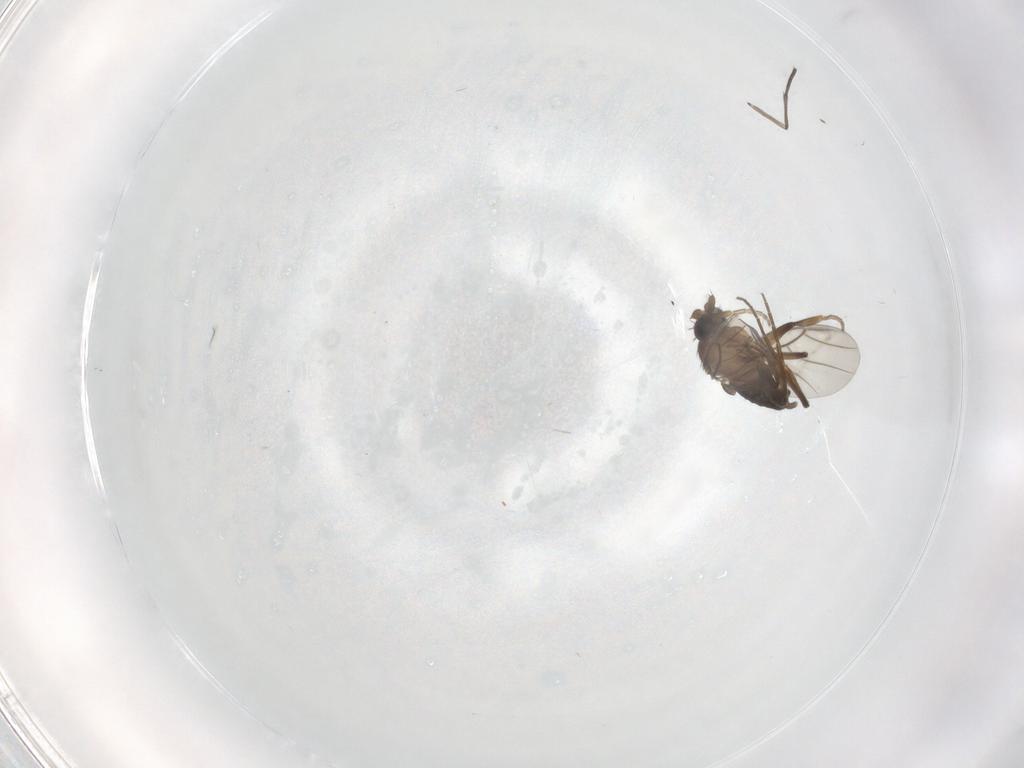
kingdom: Animalia
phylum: Arthropoda
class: Insecta
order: Diptera
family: Phoridae
